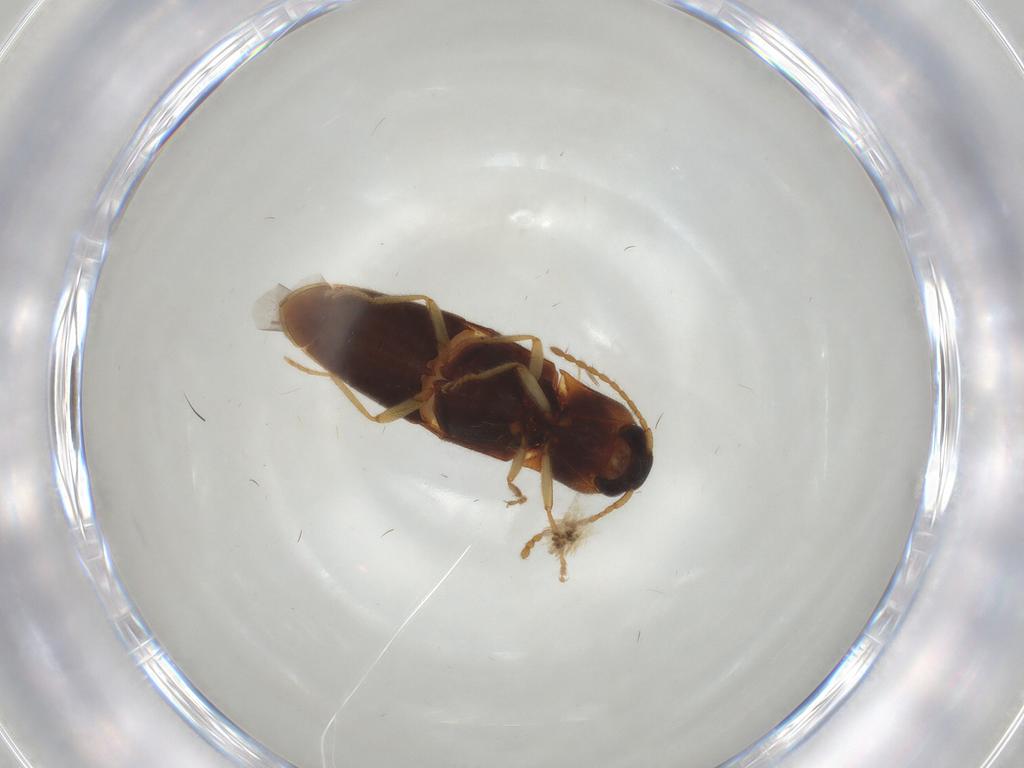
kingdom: Animalia
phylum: Arthropoda
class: Insecta
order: Coleoptera
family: Elateridae
